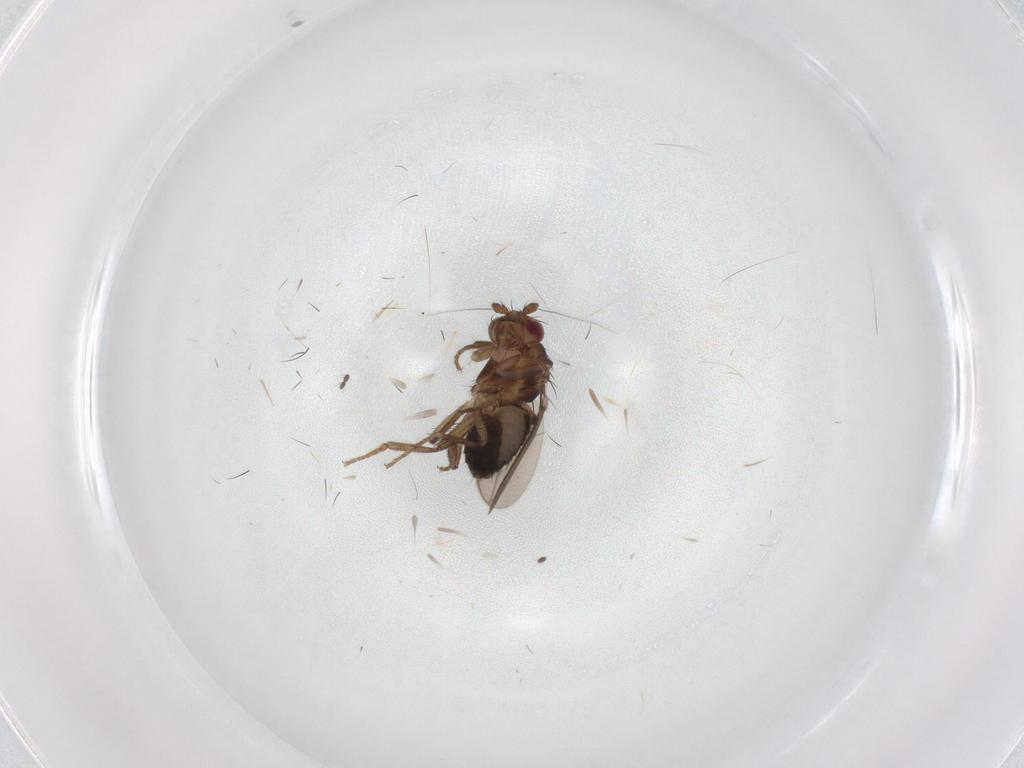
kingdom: Animalia
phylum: Arthropoda
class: Insecta
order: Diptera
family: Sphaeroceridae
